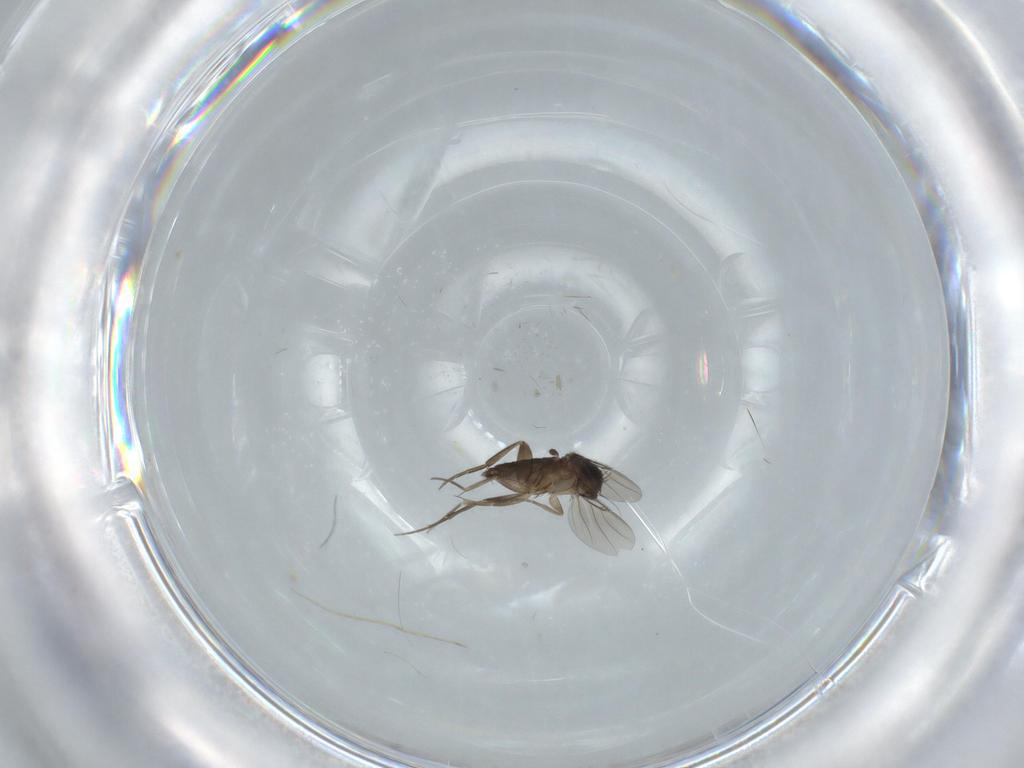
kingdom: Animalia
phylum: Arthropoda
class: Insecta
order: Diptera
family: Phoridae
